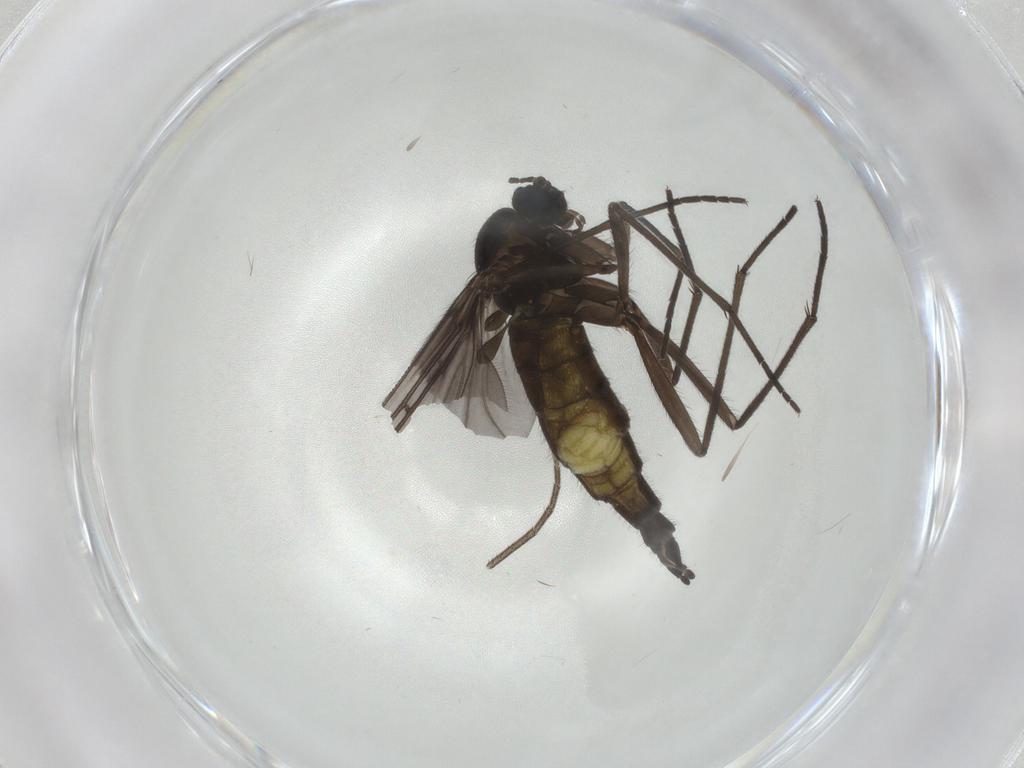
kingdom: Animalia
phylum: Arthropoda
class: Insecta
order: Diptera
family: Sciaridae
